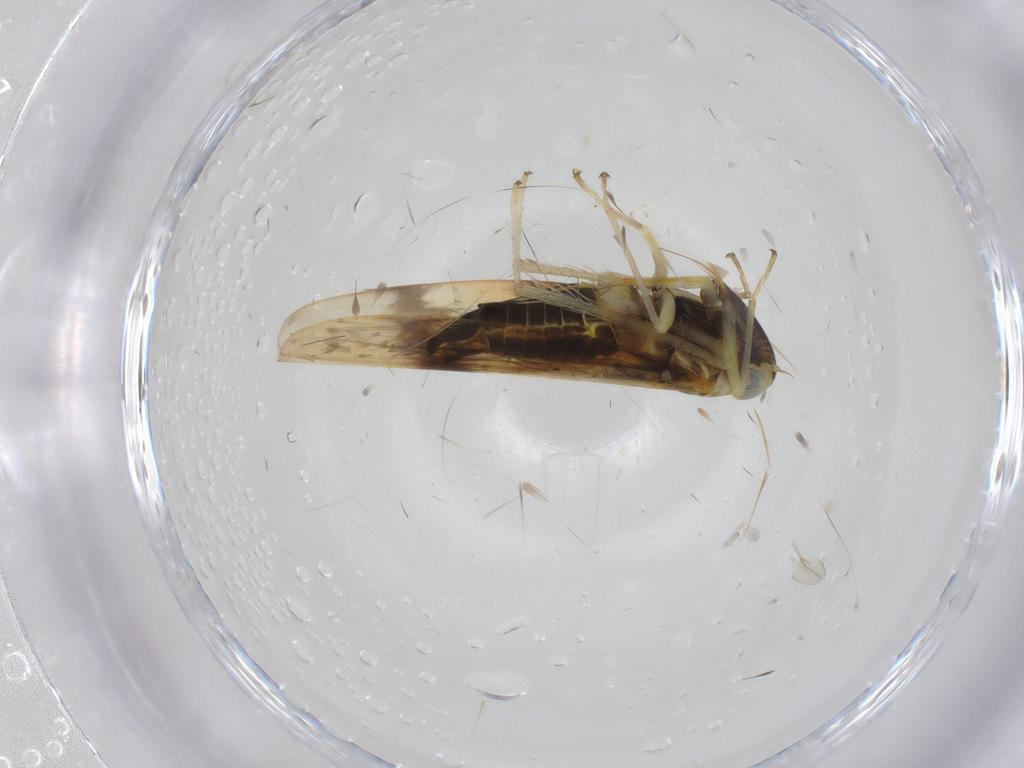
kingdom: Animalia
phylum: Arthropoda
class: Insecta
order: Hemiptera
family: Cicadellidae
